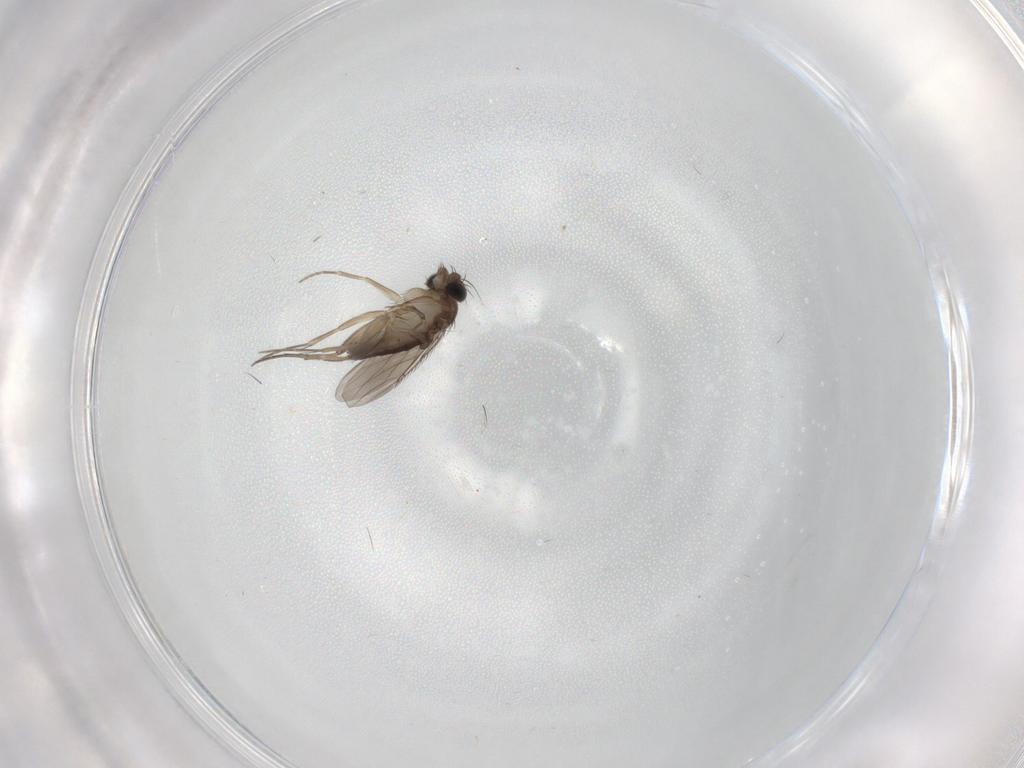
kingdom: Animalia
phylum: Arthropoda
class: Insecta
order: Diptera
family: Phoridae
